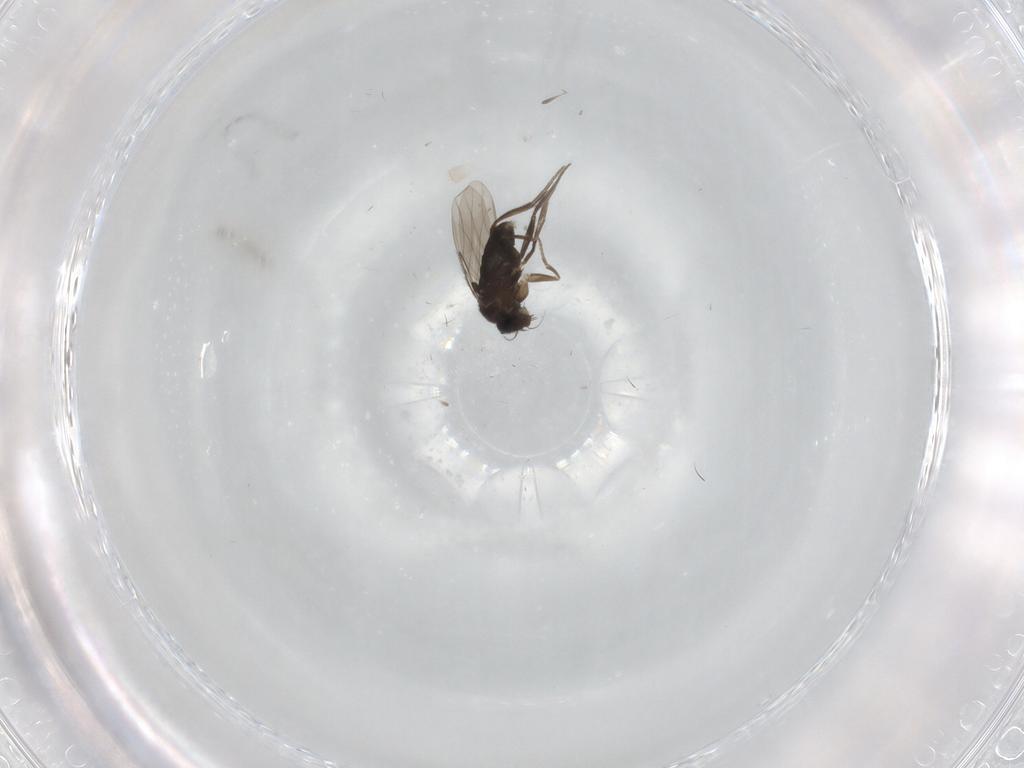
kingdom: Animalia
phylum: Arthropoda
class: Insecta
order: Diptera
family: Phoridae
